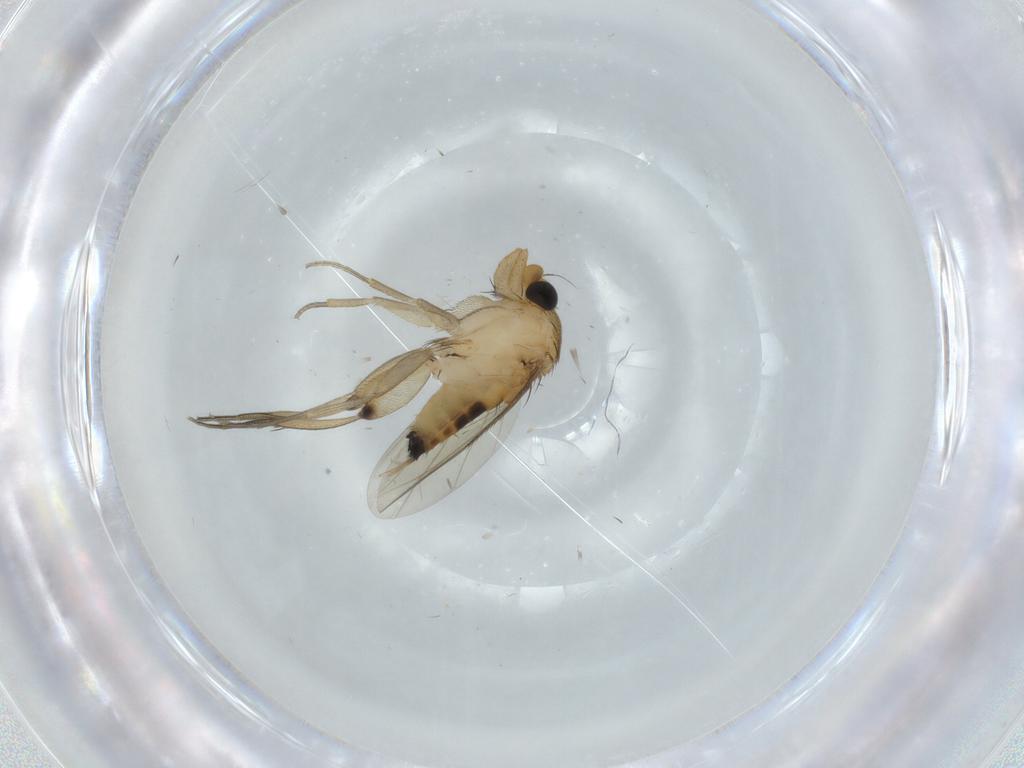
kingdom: Animalia
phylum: Arthropoda
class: Insecta
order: Diptera
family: Phoridae
